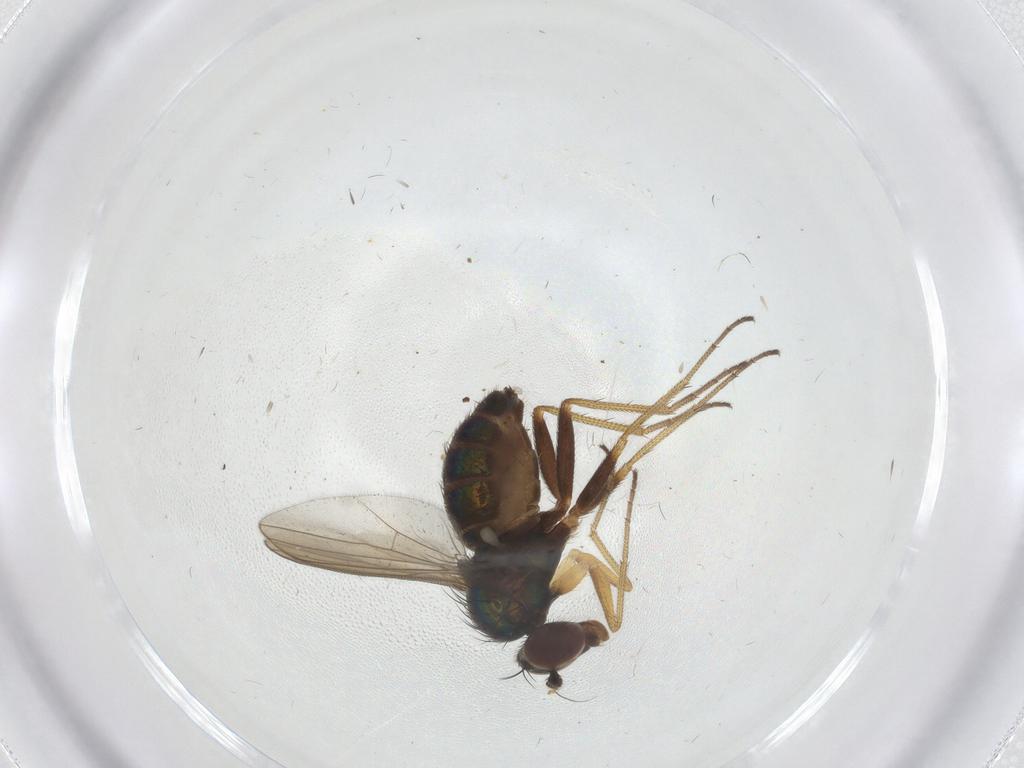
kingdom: Animalia
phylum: Arthropoda
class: Insecta
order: Diptera
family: Dolichopodidae
